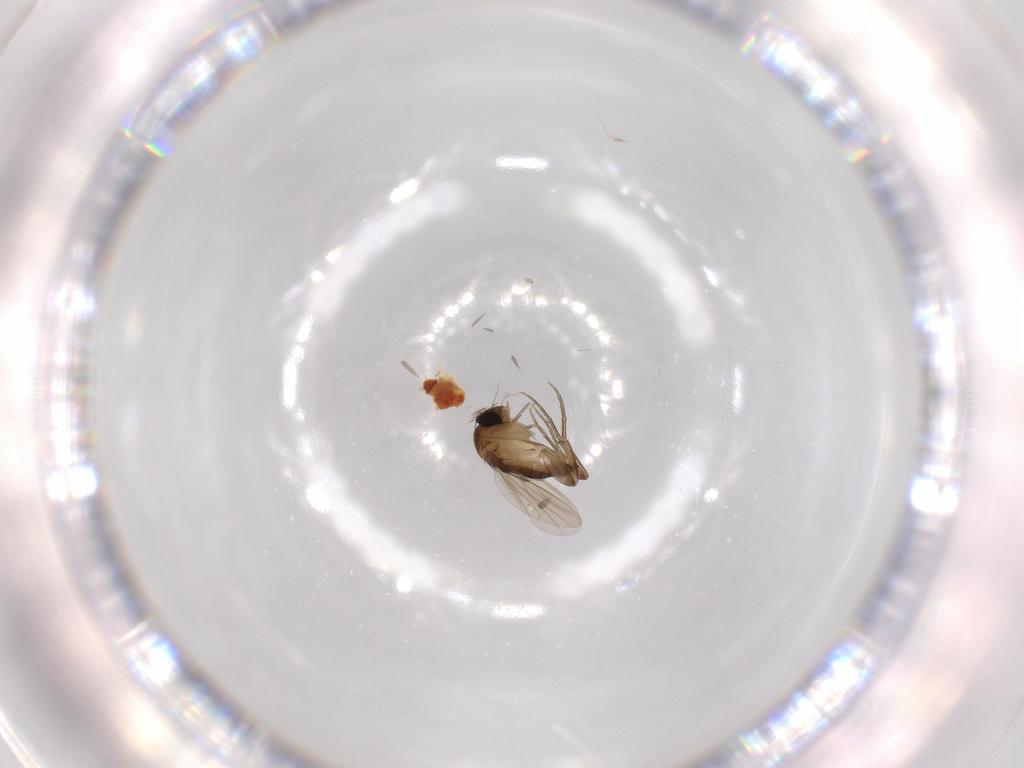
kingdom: Animalia
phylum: Arthropoda
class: Insecta
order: Diptera
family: Phoridae
